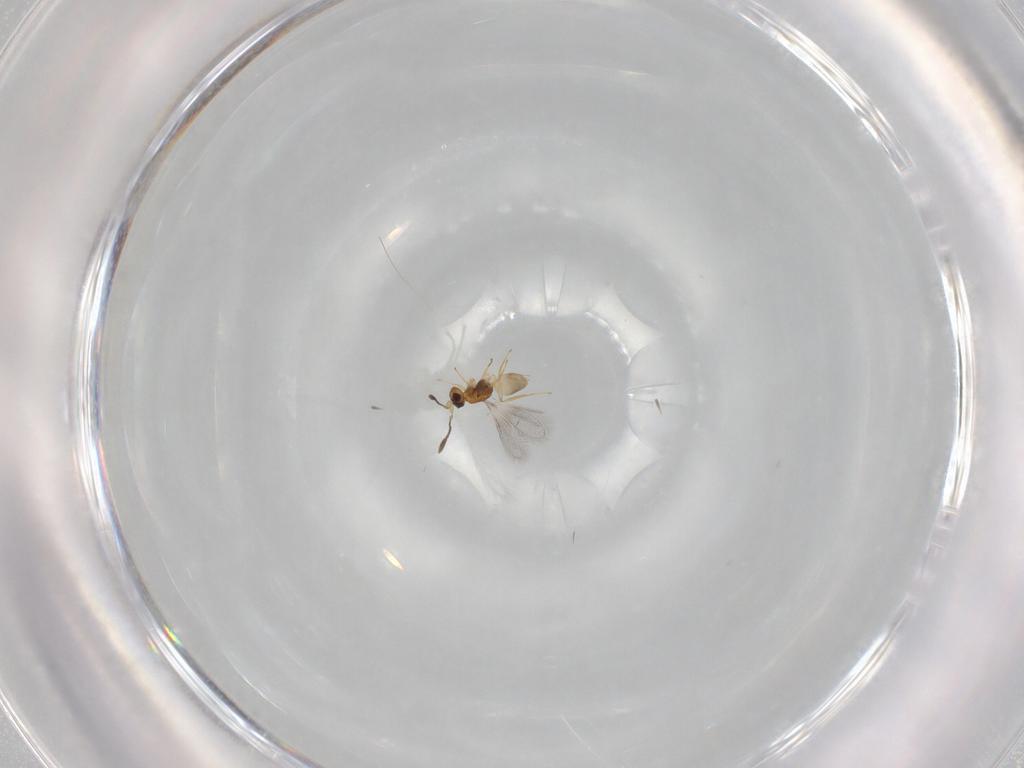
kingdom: Animalia
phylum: Arthropoda
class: Insecta
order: Hymenoptera
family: Mymaridae
